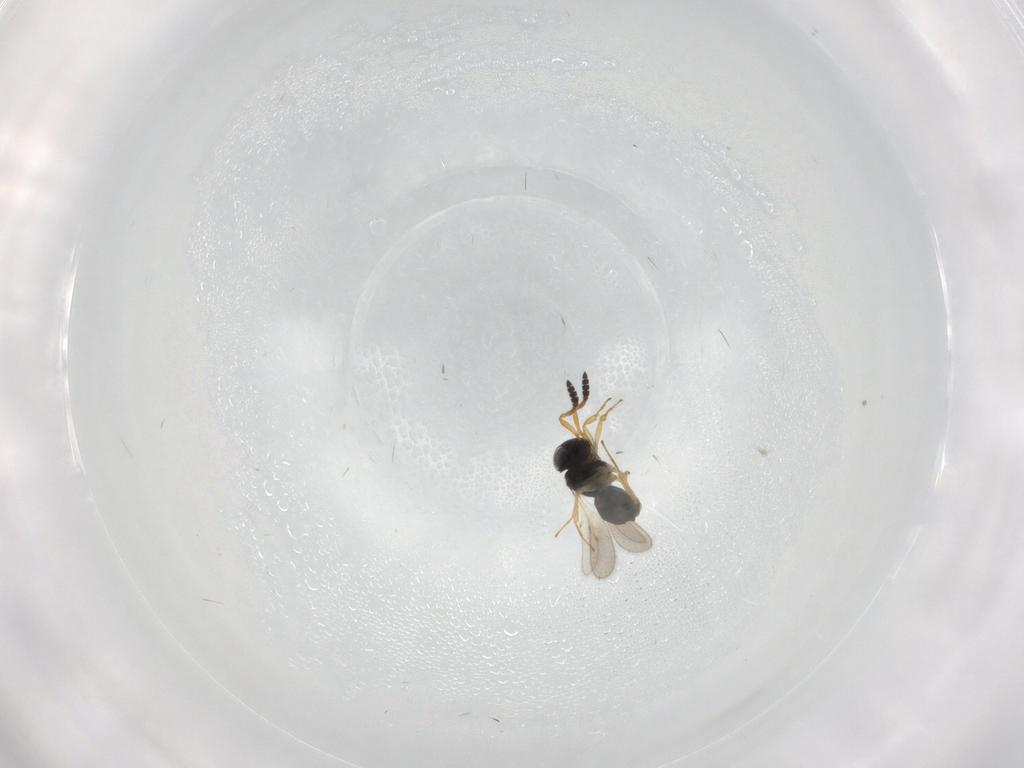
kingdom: Animalia
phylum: Arthropoda
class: Insecta
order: Hymenoptera
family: Scelionidae
